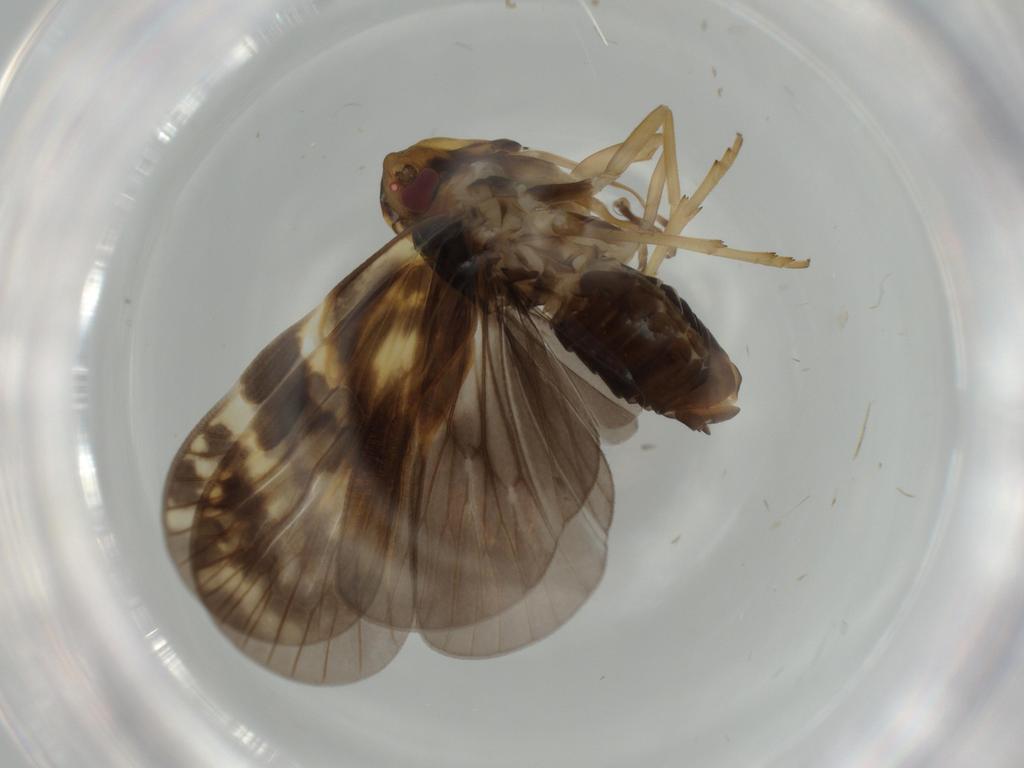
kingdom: Animalia
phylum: Arthropoda
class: Insecta
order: Hemiptera
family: Cixiidae
